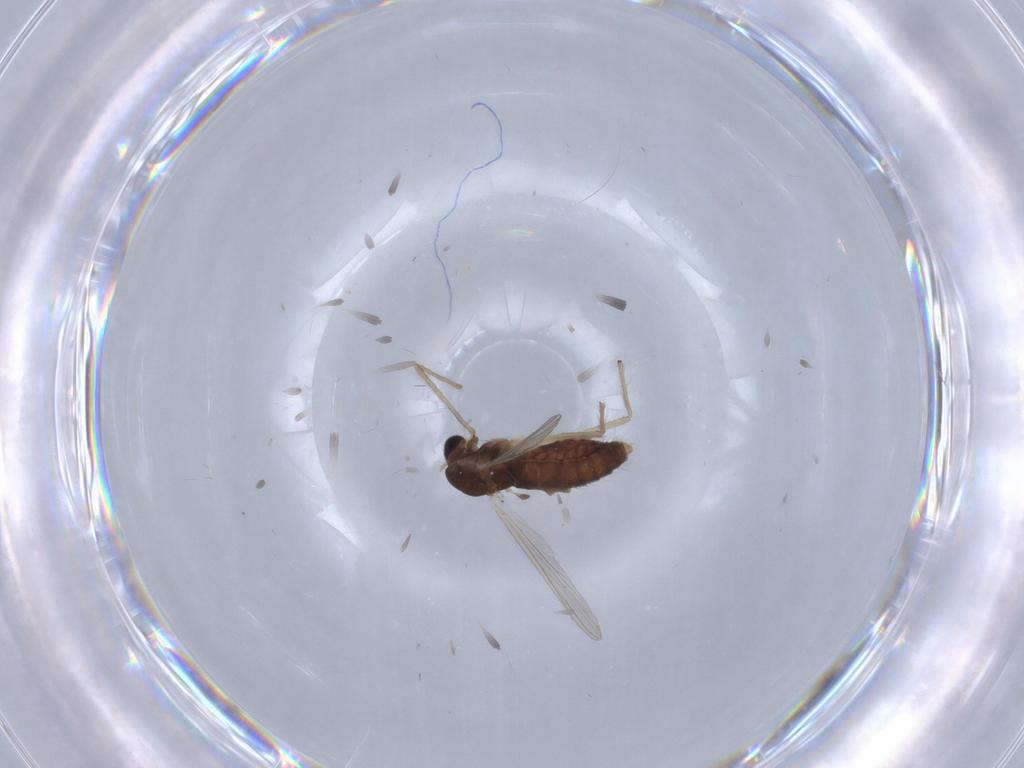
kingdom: Animalia
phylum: Arthropoda
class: Insecta
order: Diptera
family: Chironomidae
